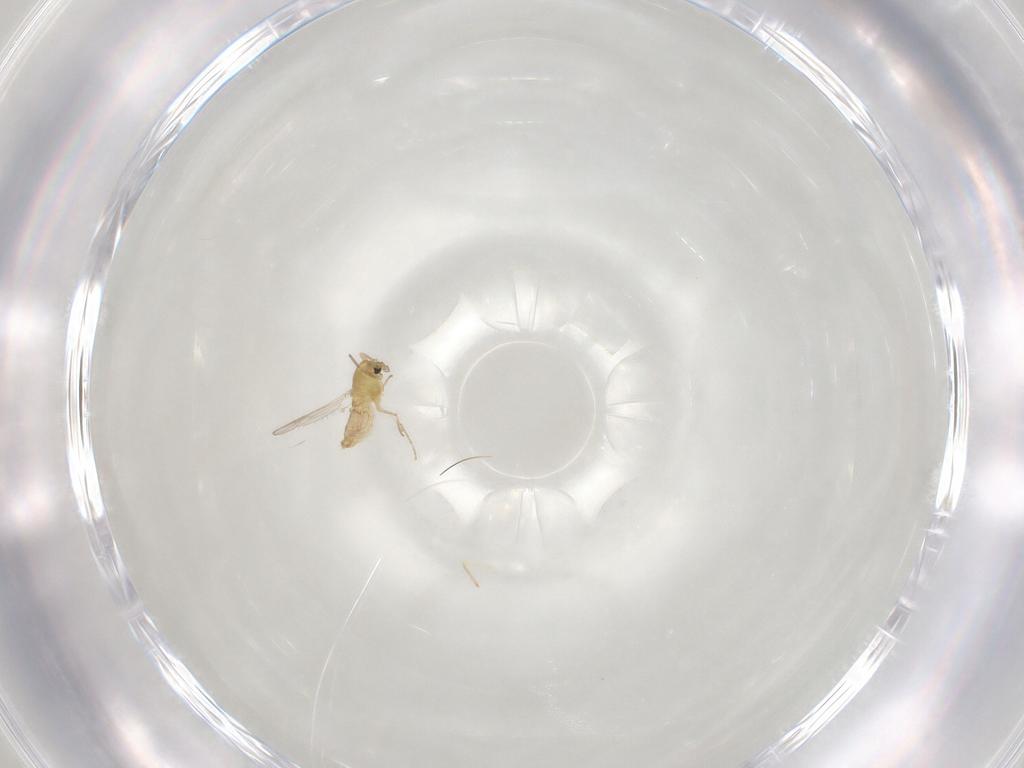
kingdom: Animalia
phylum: Arthropoda
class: Insecta
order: Diptera
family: Chironomidae
